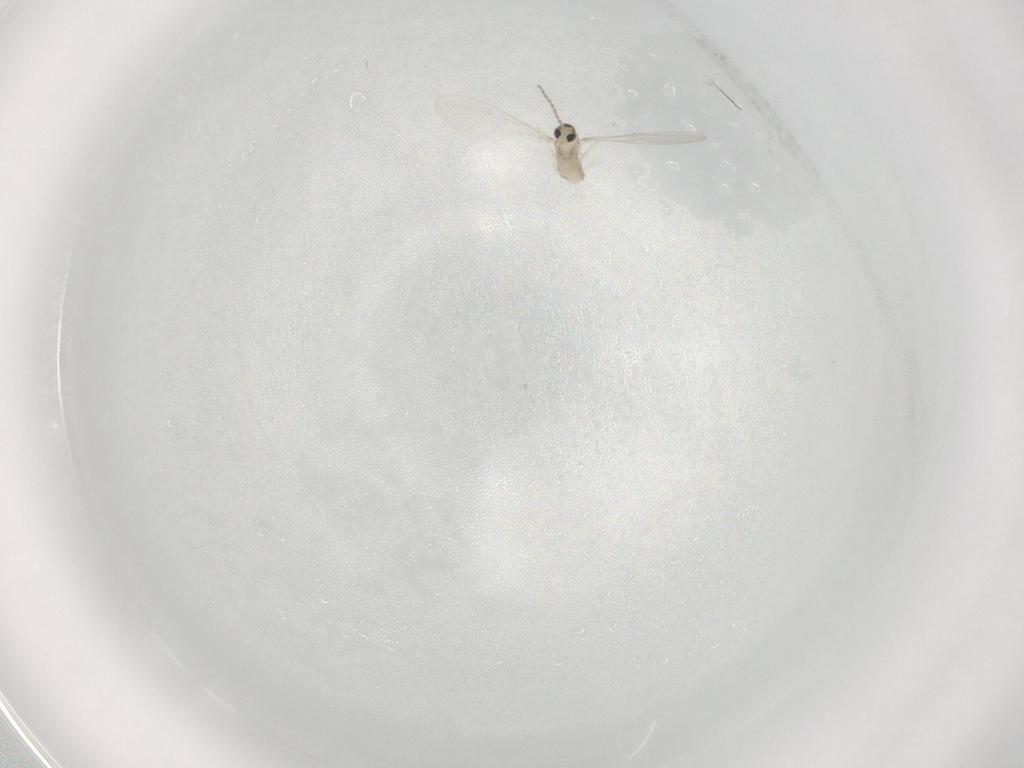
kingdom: Animalia
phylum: Arthropoda
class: Insecta
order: Diptera
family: Cecidomyiidae
